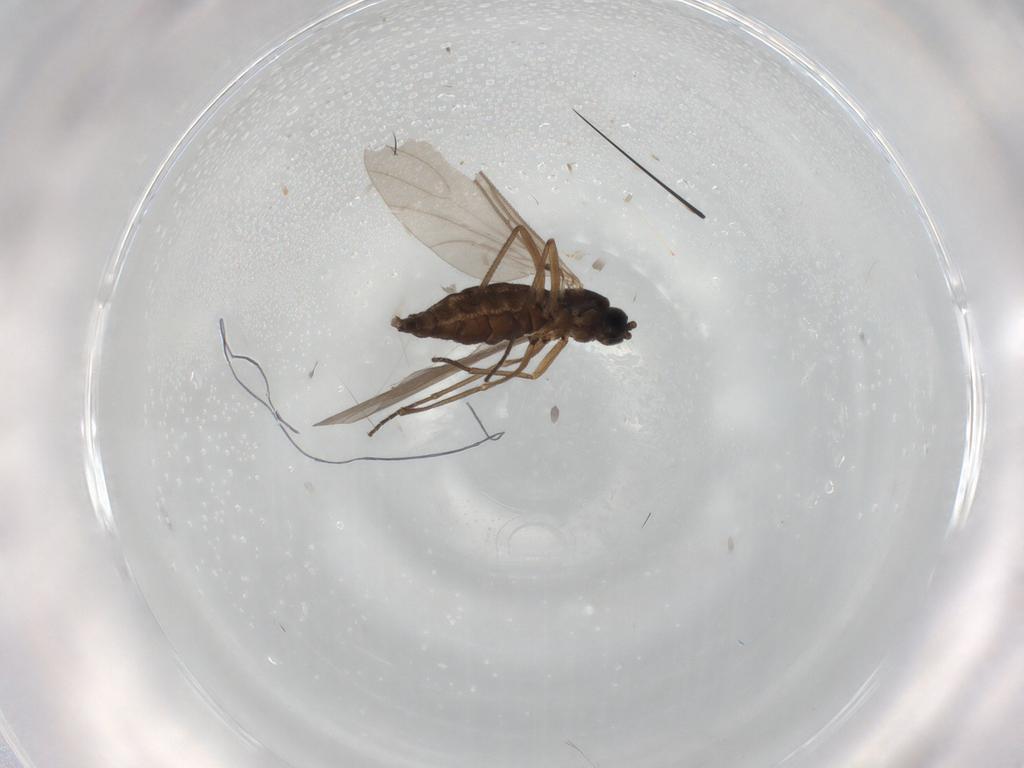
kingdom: Animalia
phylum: Arthropoda
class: Insecta
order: Diptera
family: Sciaridae
